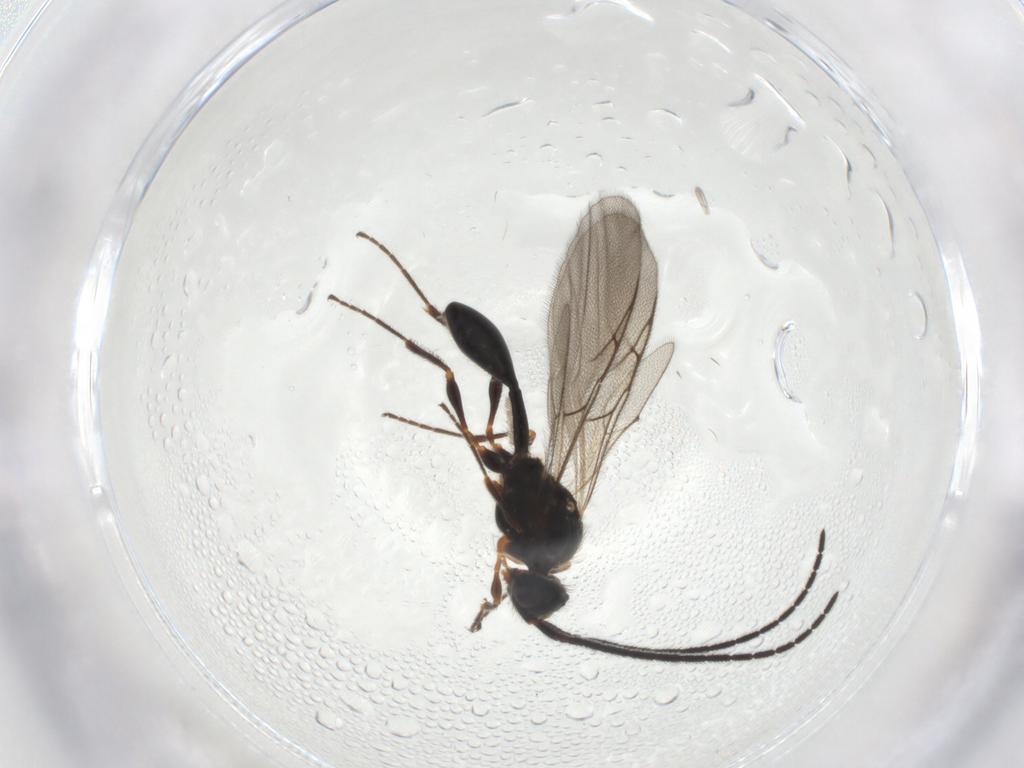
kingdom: Animalia
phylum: Arthropoda
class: Insecta
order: Hymenoptera
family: Diapriidae
